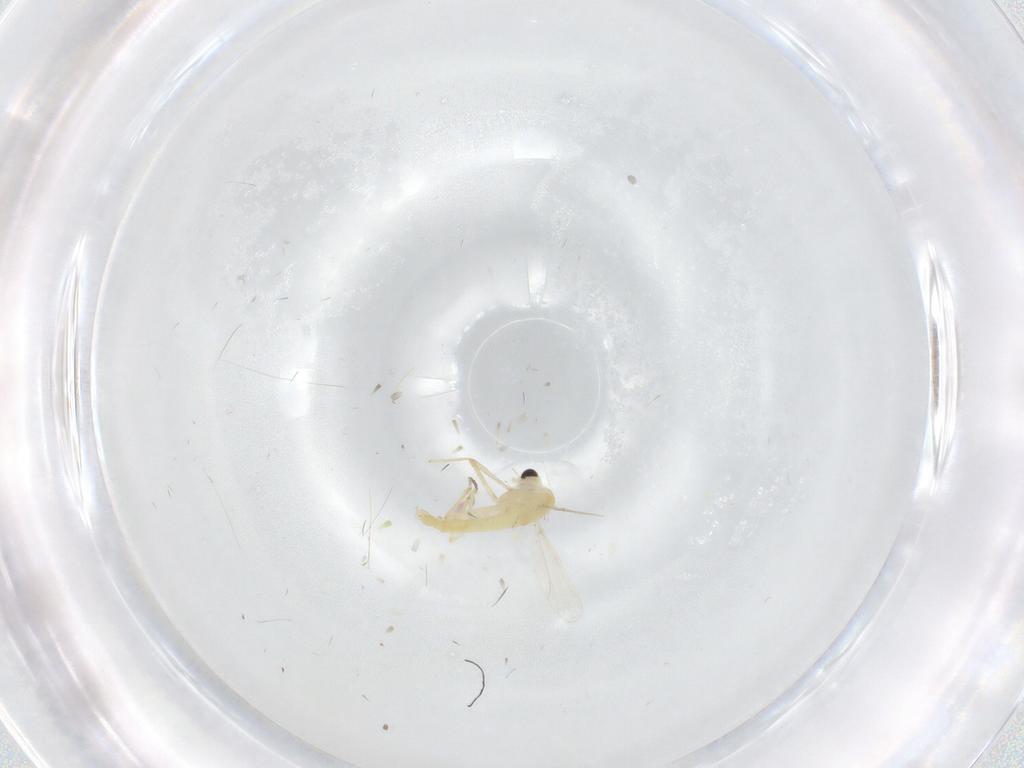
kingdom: Animalia
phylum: Arthropoda
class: Insecta
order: Diptera
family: Chironomidae
